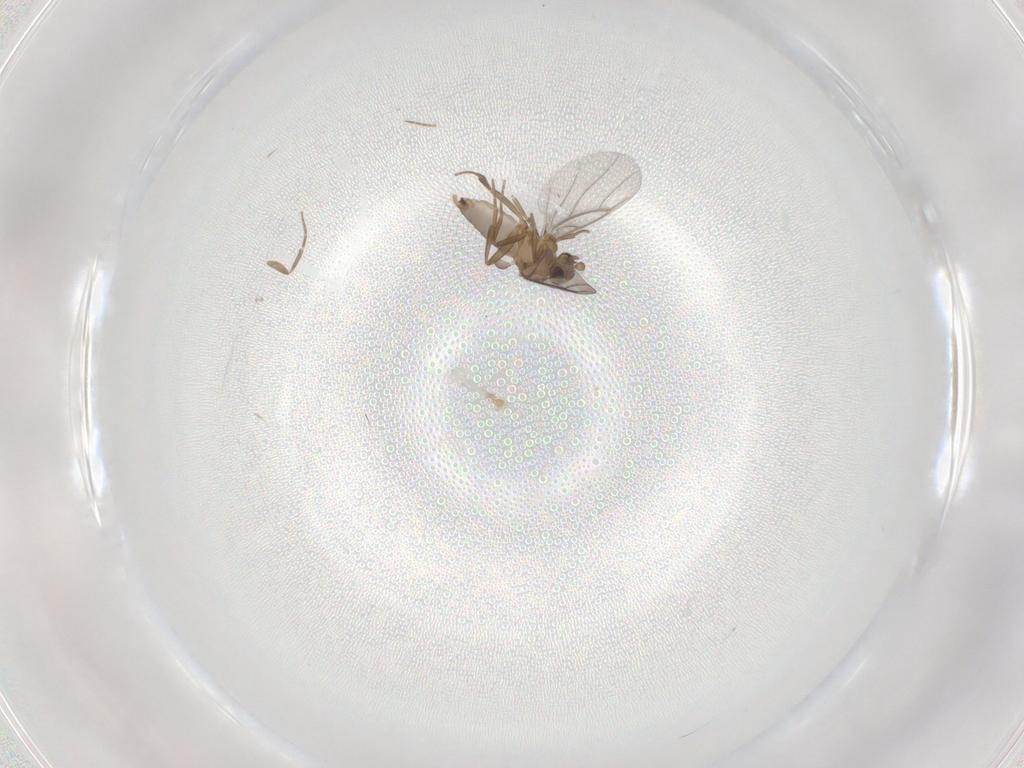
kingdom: Animalia
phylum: Arthropoda
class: Insecta
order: Diptera
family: Phoridae
